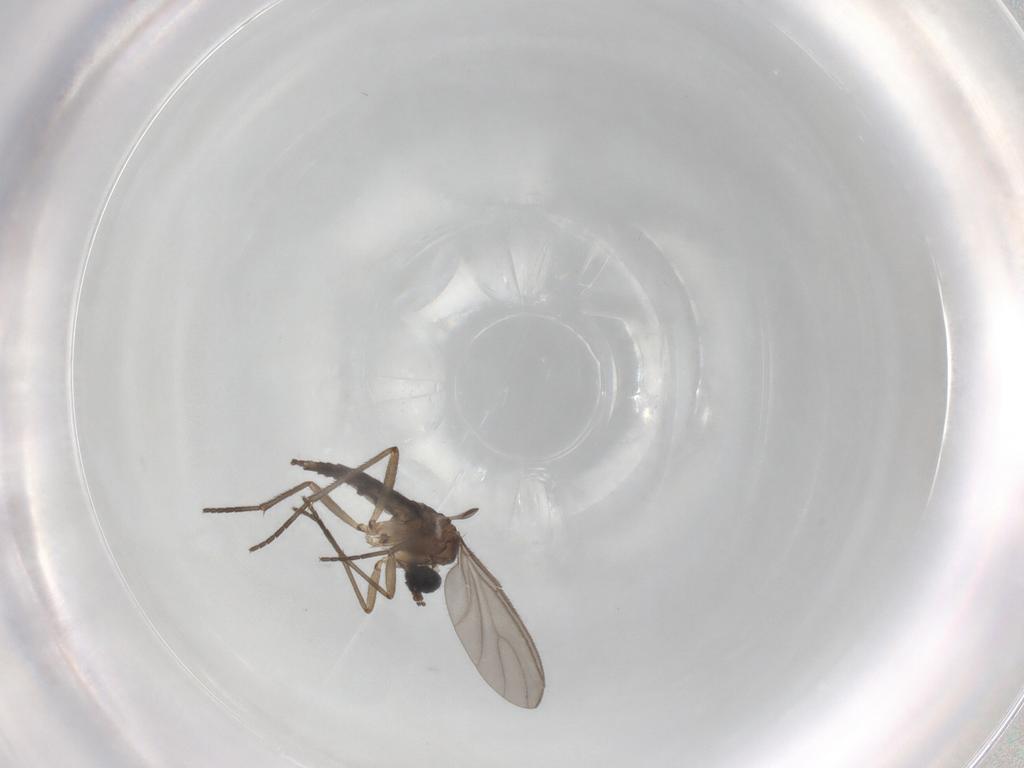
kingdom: Animalia
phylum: Arthropoda
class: Insecta
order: Diptera
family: Sciaridae
